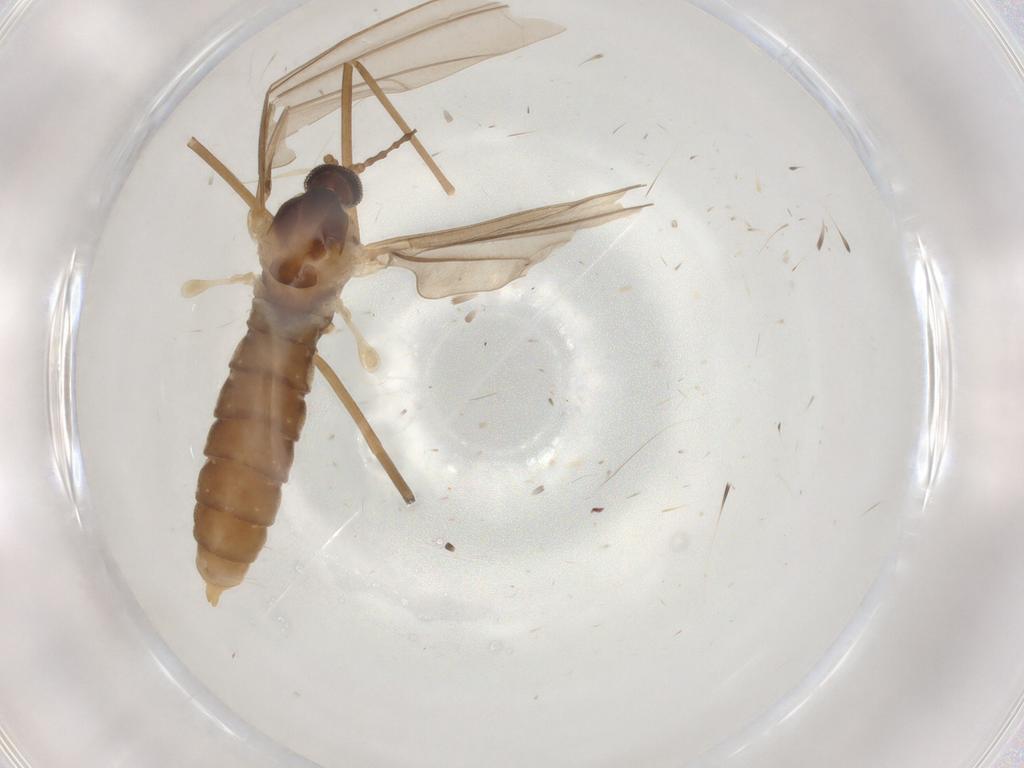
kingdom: Animalia
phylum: Arthropoda
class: Insecta
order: Diptera
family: Cecidomyiidae
